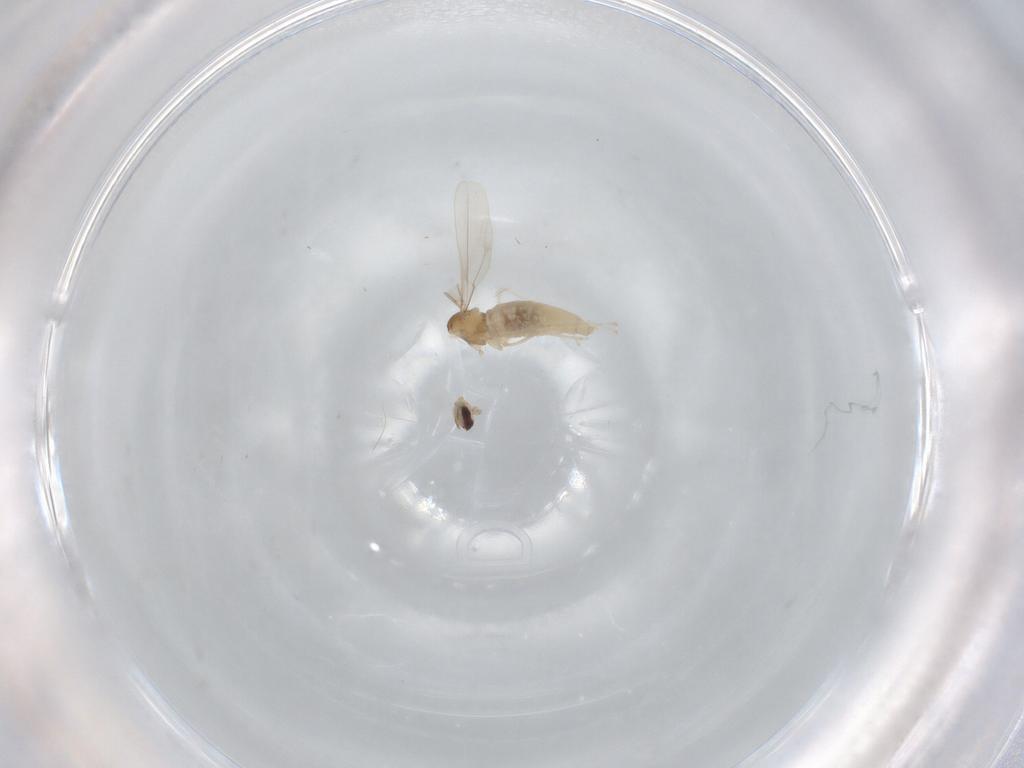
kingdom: Animalia
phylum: Arthropoda
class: Insecta
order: Diptera
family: Cecidomyiidae
